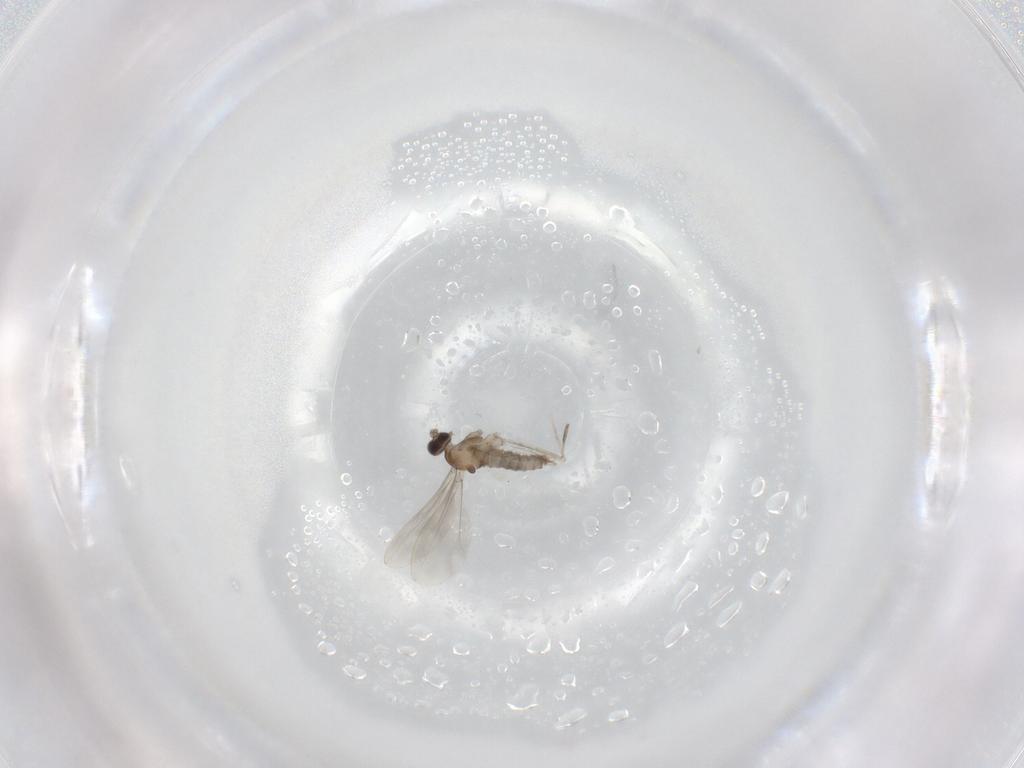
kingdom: Animalia
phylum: Arthropoda
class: Insecta
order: Diptera
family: Cecidomyiidae
